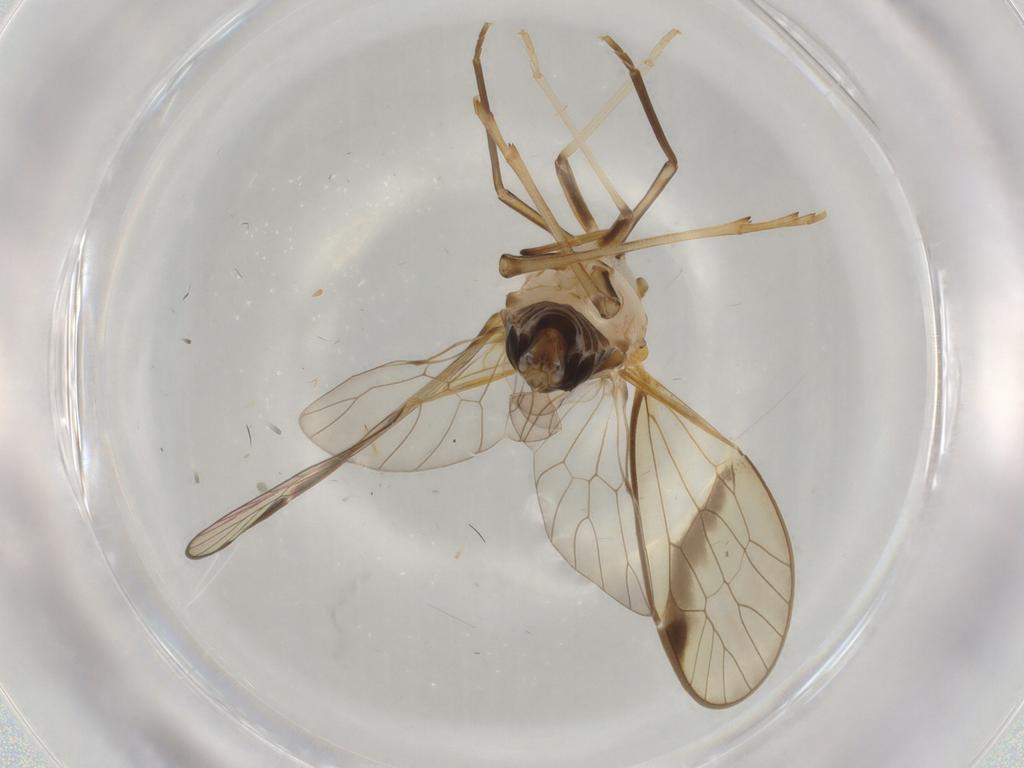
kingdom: Animalia
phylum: Arthropoda
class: Insecta
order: Hemiptera
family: Kinnaridae
